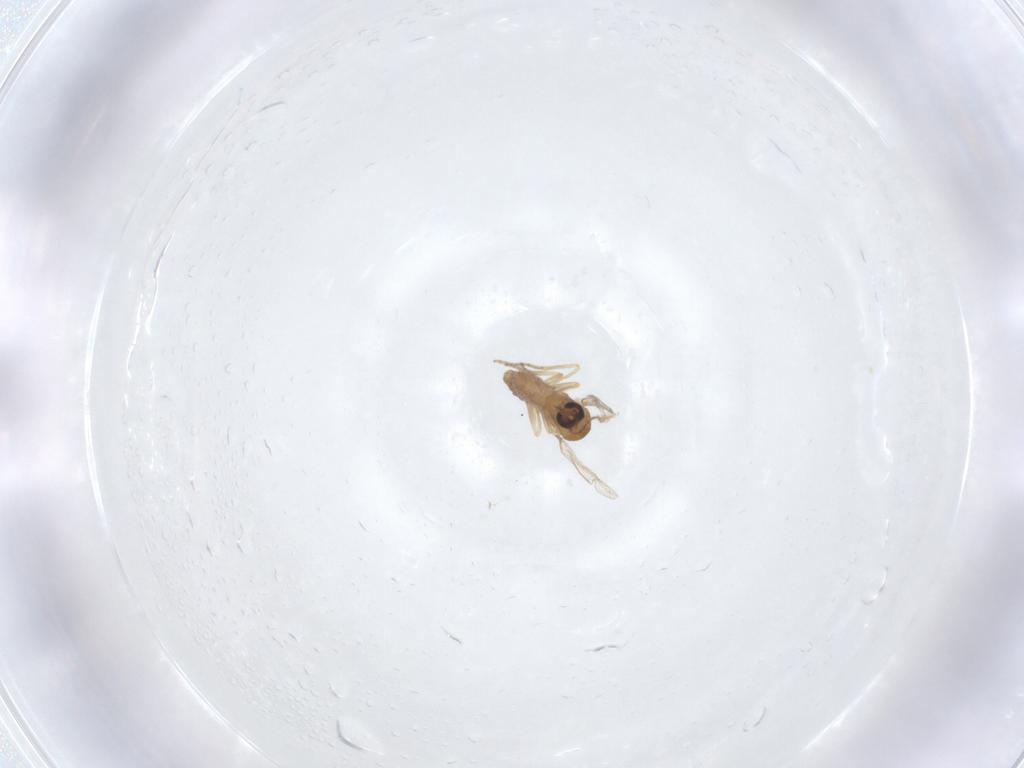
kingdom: Animalia
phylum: Arthropoda
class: Insecta
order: Diptera
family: Ceratopogonidae
